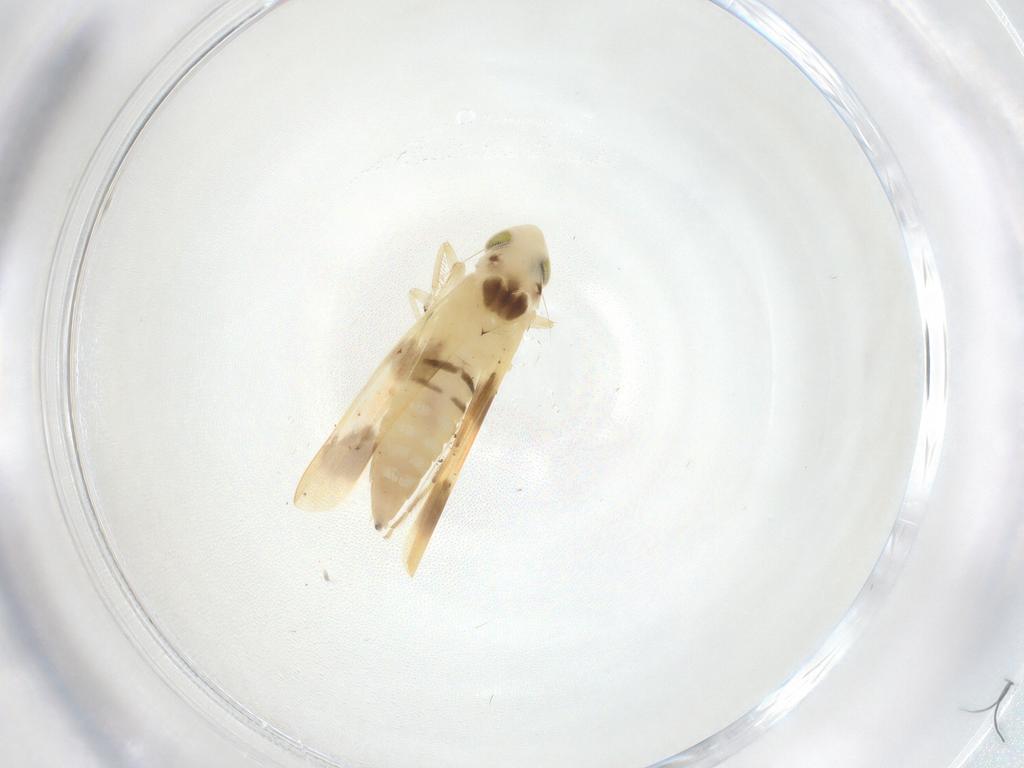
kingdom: Animalia
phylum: Arthropoda
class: Insecta
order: Hemiptera
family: Cicadellidae
